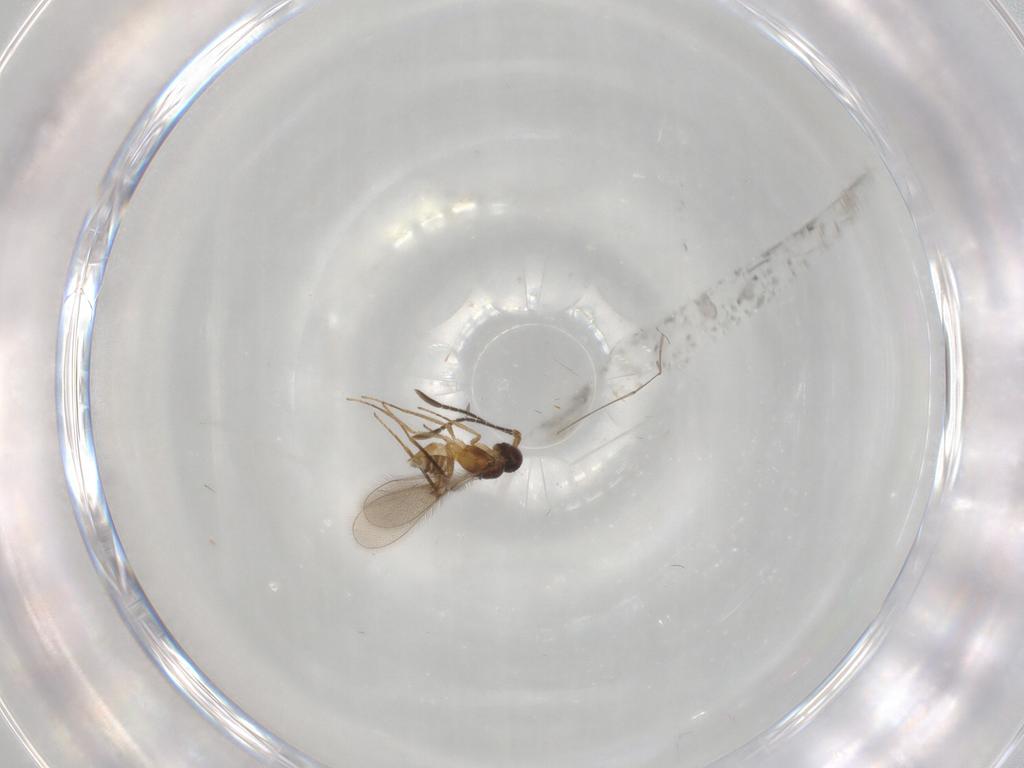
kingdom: Animalia
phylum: Arthropoda
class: Insecta
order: Diptera
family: Cecidomyiidae
